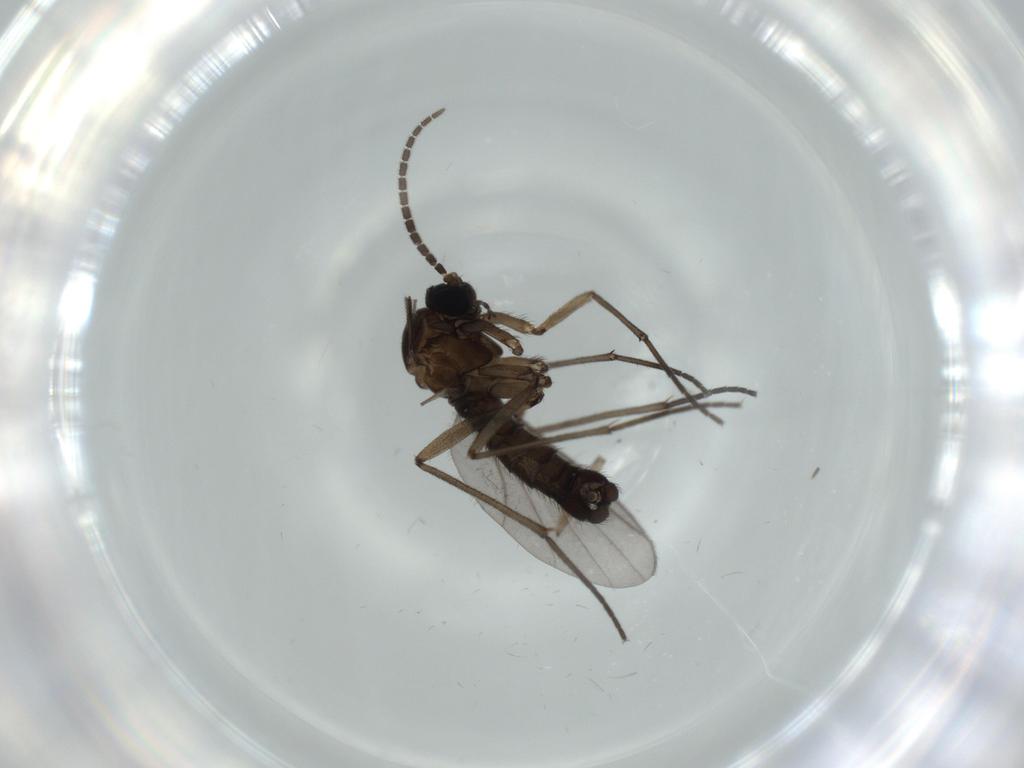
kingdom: Animalia
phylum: Arthropoda
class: Insecta
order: Diptera
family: Sciaridae
